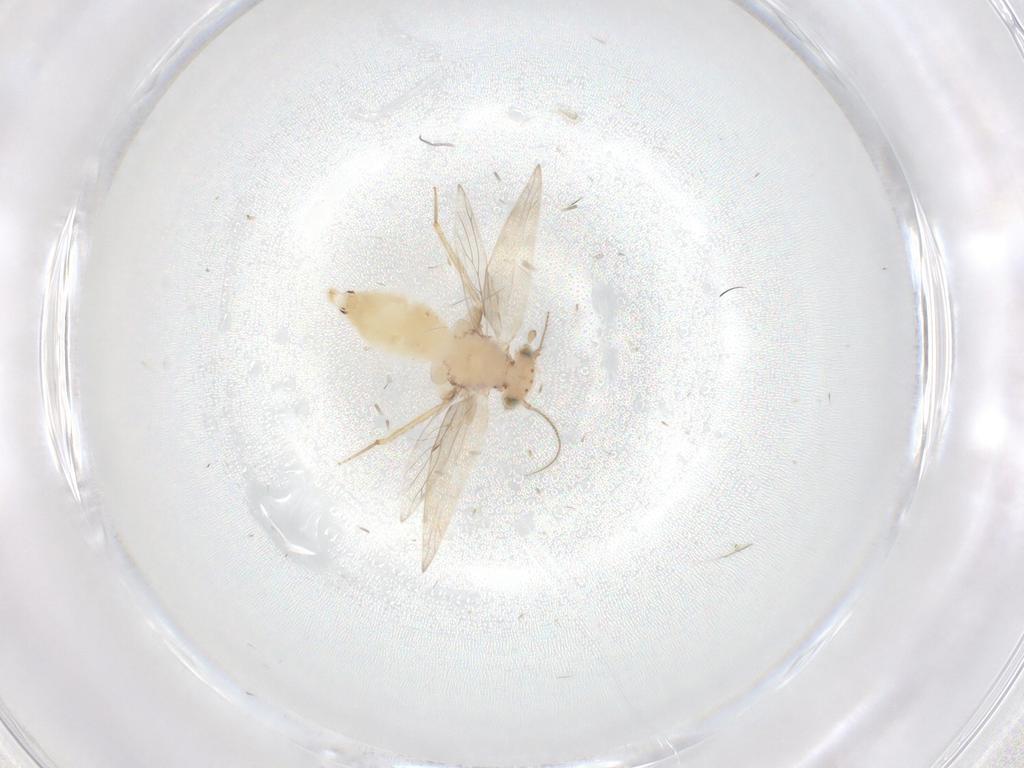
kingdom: Animalia
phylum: Arthropoda
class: Insecta
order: Psocodea
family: Lepidopsocidae
